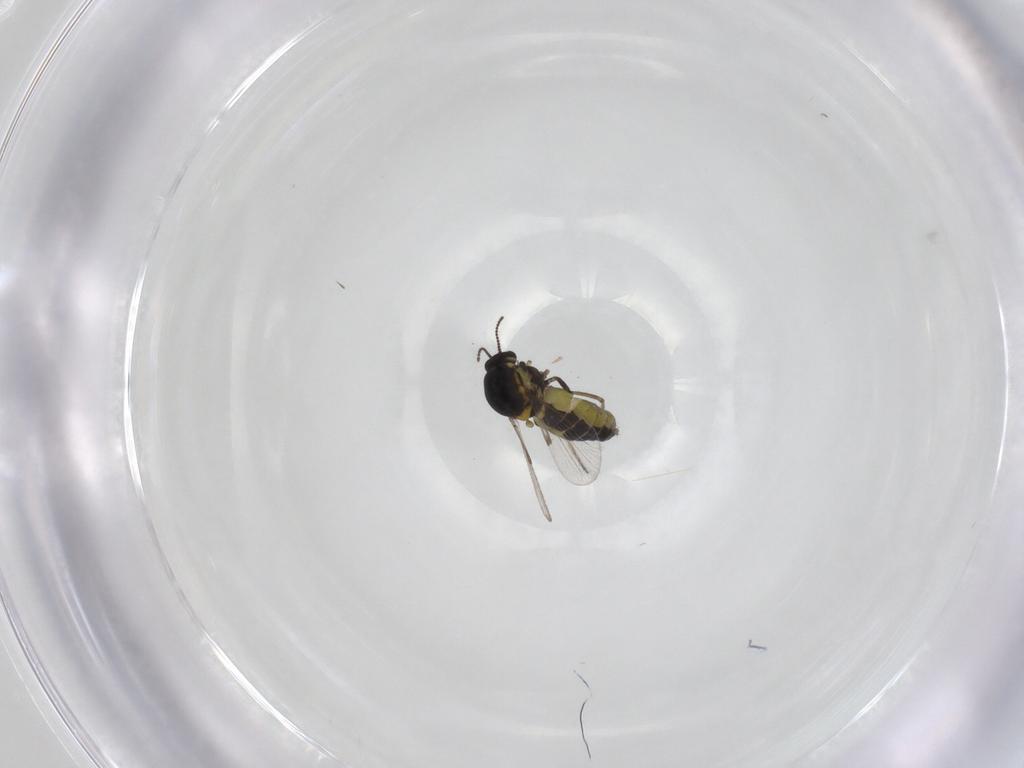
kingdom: Animalia
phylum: Arthropoda
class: Insecta
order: Diptera
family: Ceratopogonidae
